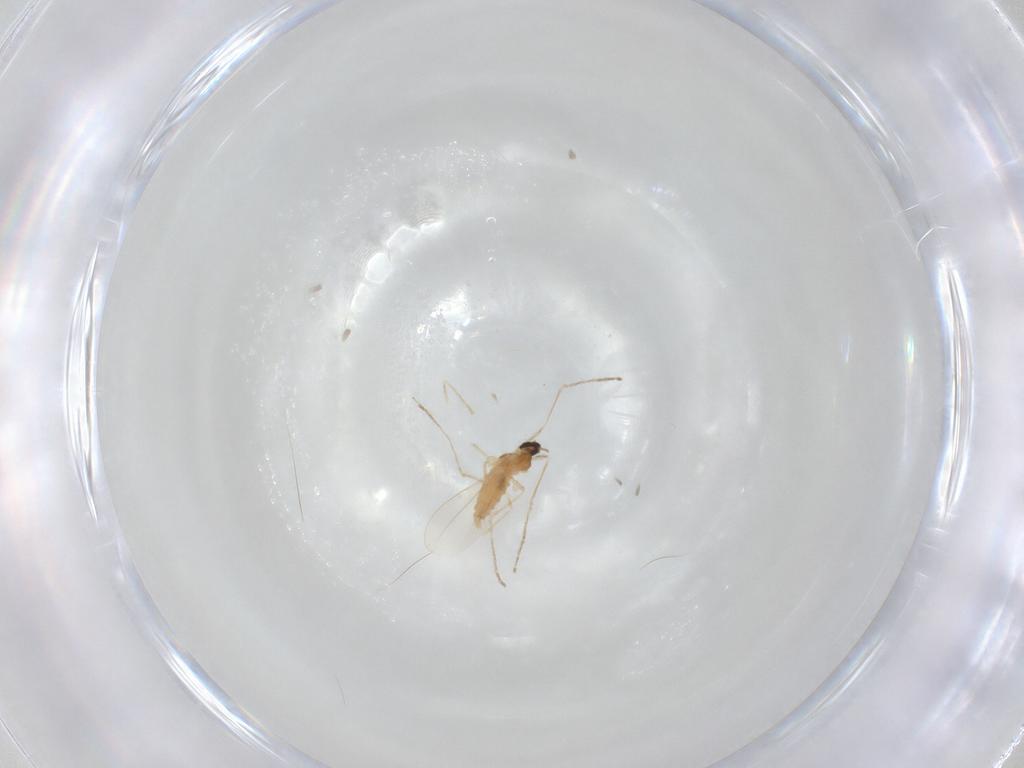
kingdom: Animalia
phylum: Arthropoda
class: Insecta
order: Diptera
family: Cecidomyiidae
